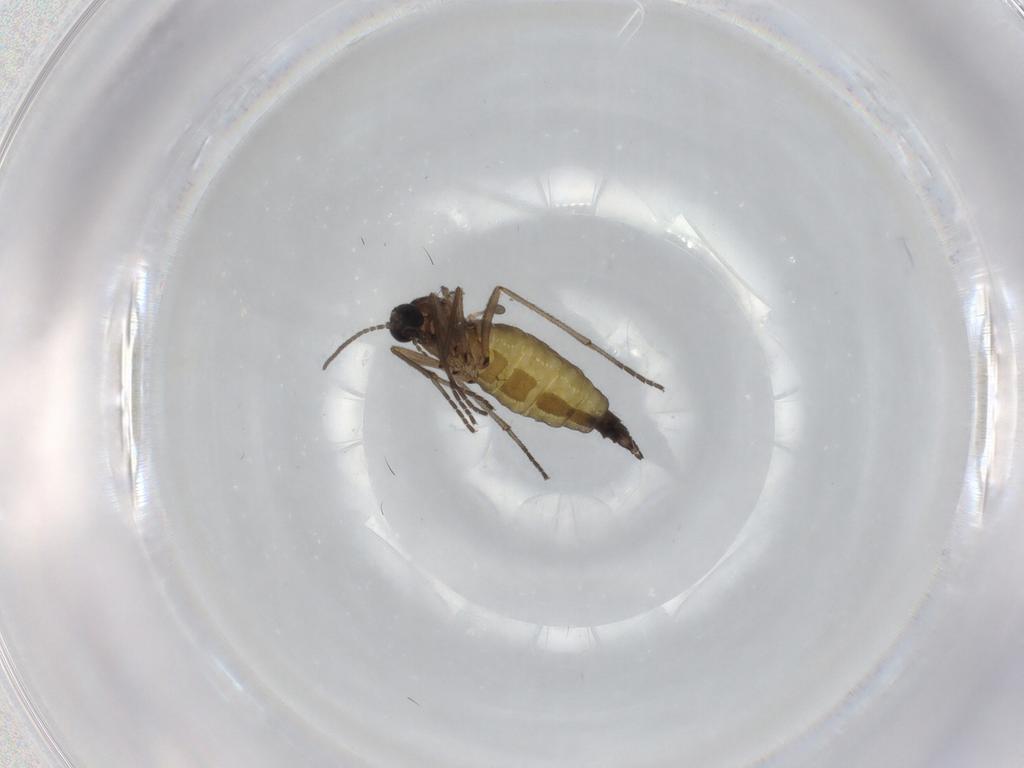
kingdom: Animalia
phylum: Arthropoda
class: Insecta
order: Diptera
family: Sciaridae
